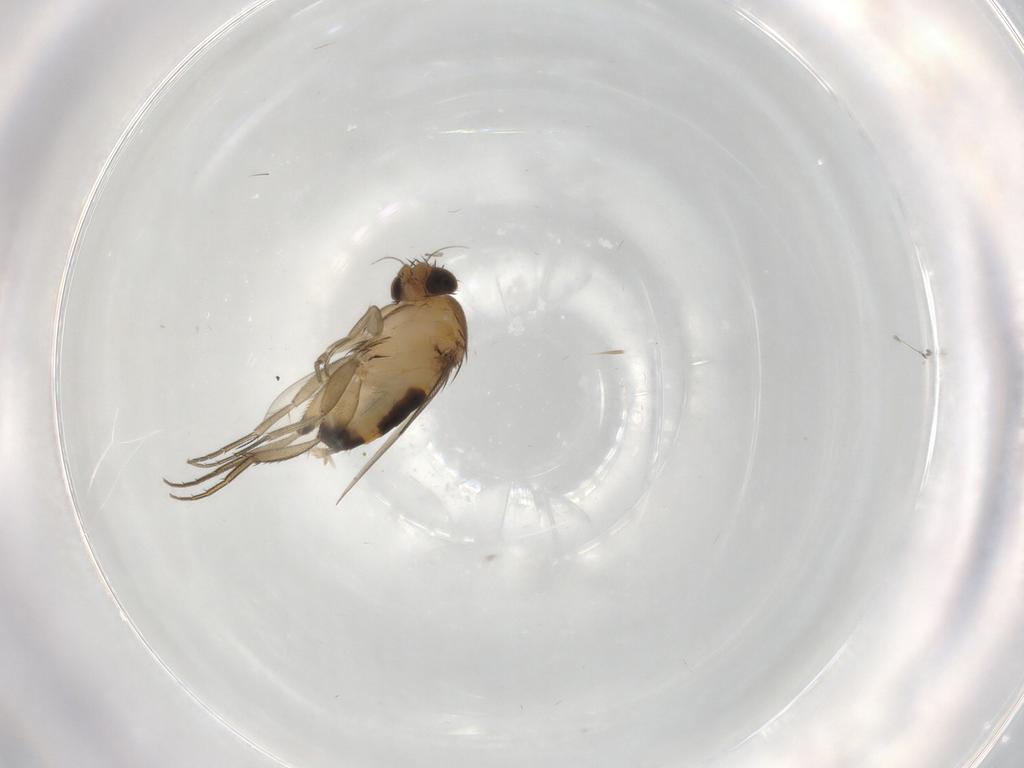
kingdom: Animalia
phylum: Arthropoda
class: Insecta
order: Diptera
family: Phoridae
